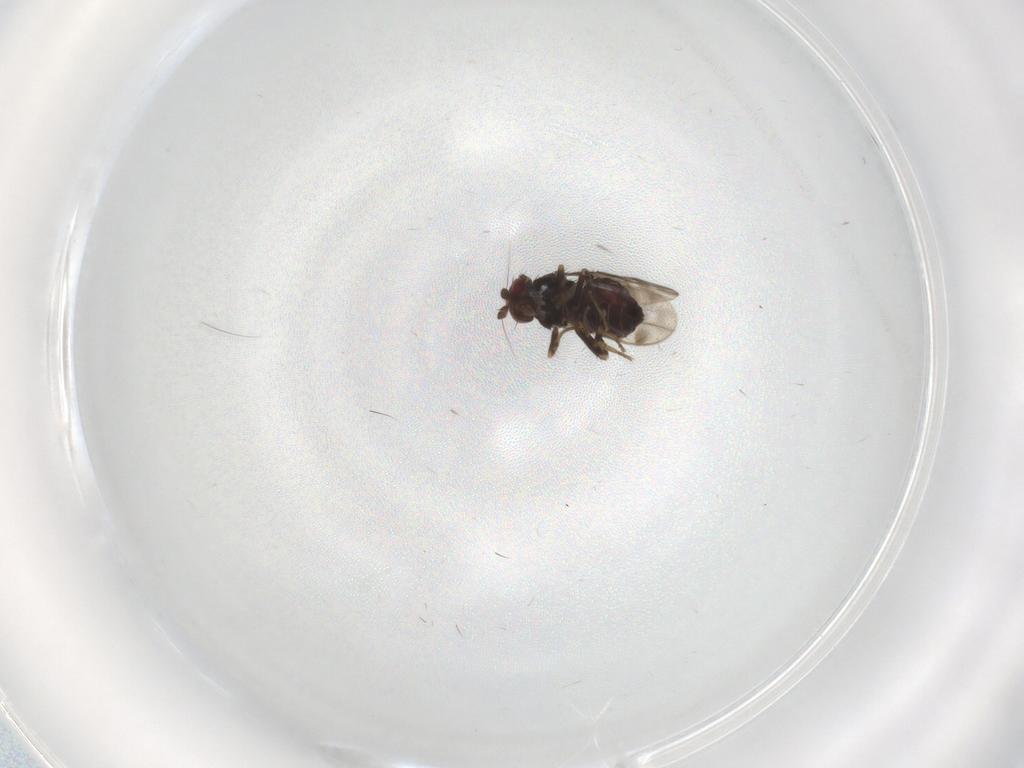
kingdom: Animalia
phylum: Arthropoda
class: Insecta
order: Diptera
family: Sphaeroceridae
